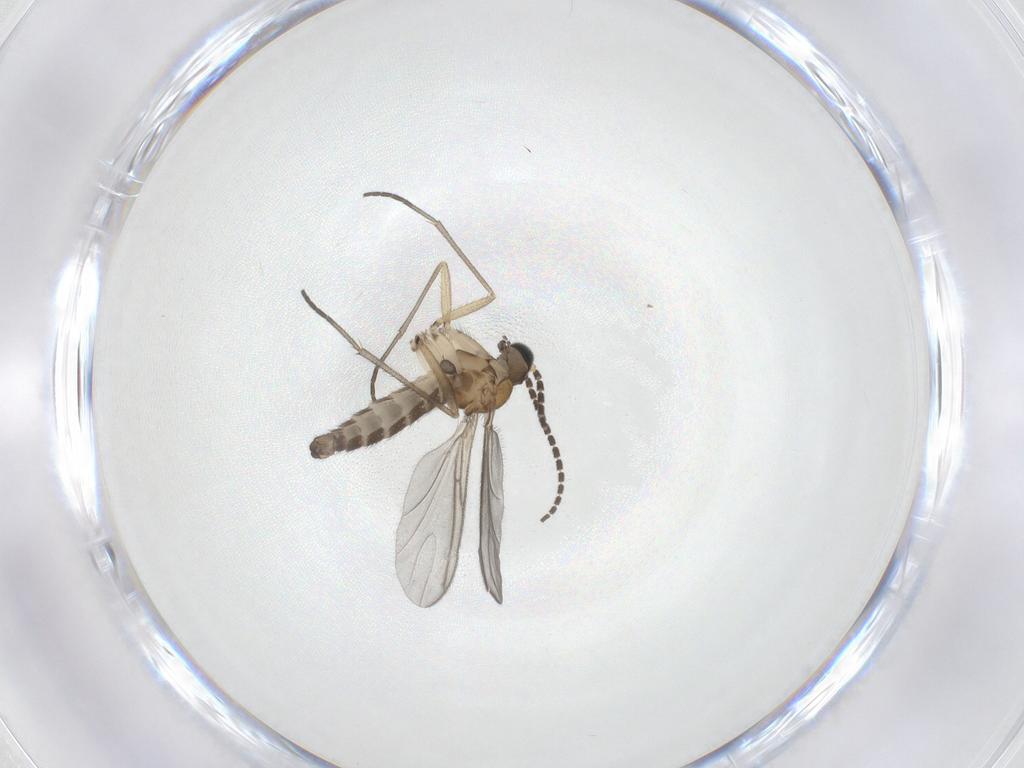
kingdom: Animalia
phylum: Arthropoda
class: Insecta
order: Diptera
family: Sciaridae
